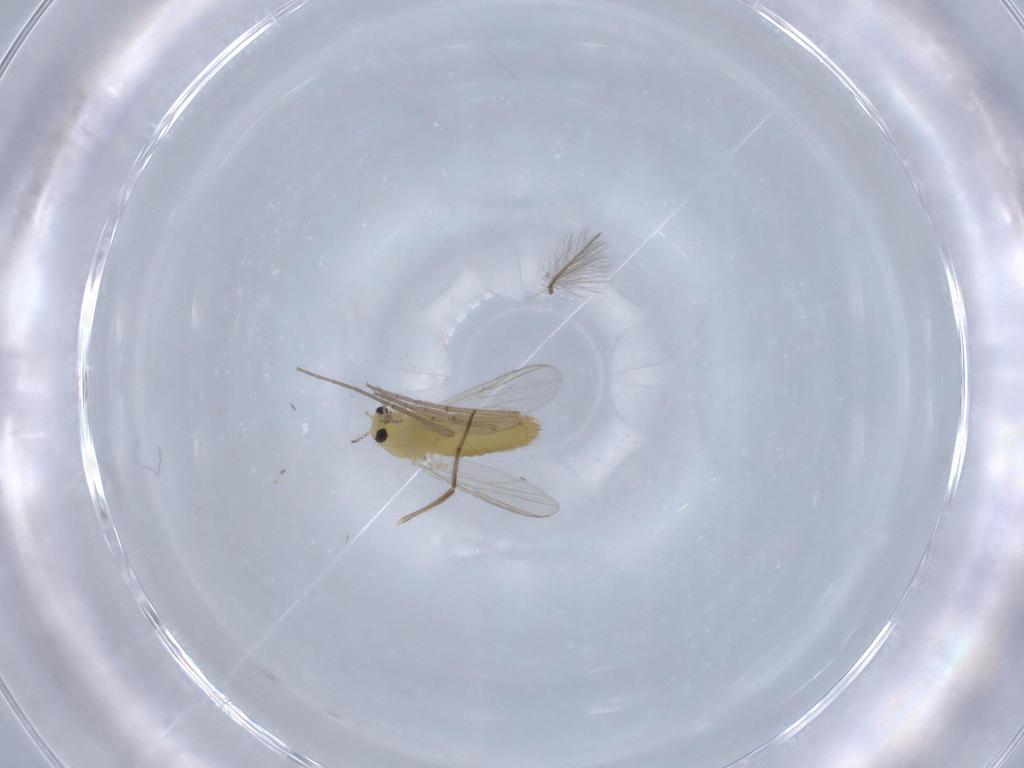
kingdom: Animalia
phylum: Arthropoda
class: Insecta
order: Diptera
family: Chironomidae
